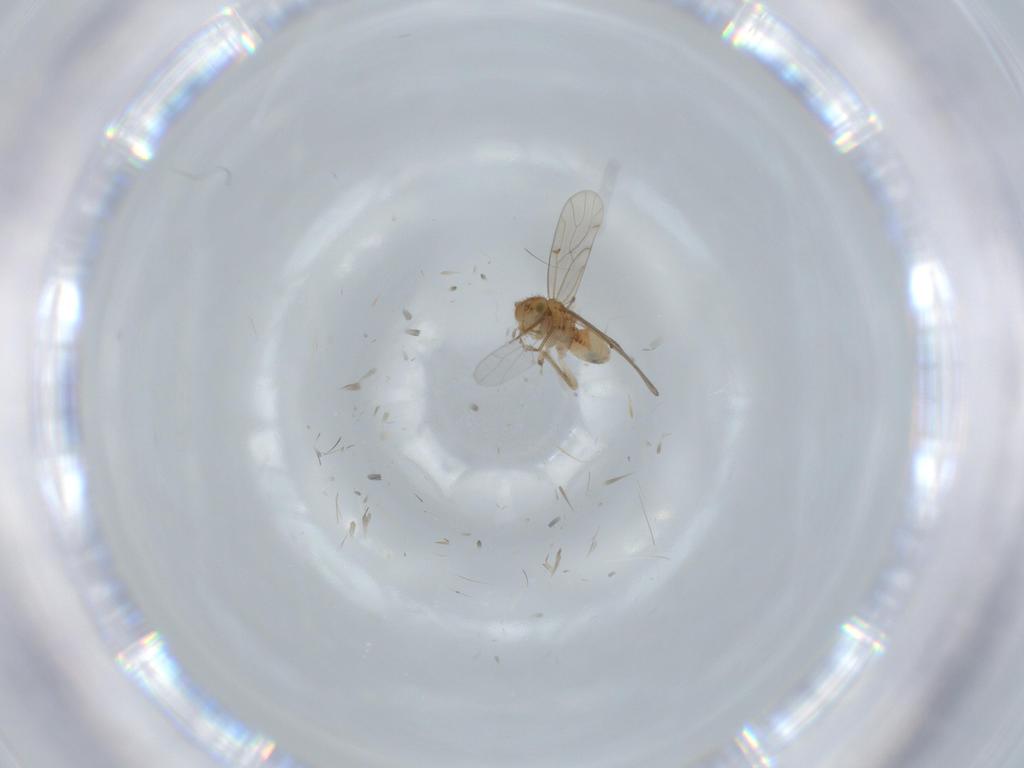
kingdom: Animalia
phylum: Arthropoda
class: Insecta
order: Psocodea
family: Ectopsocidae
